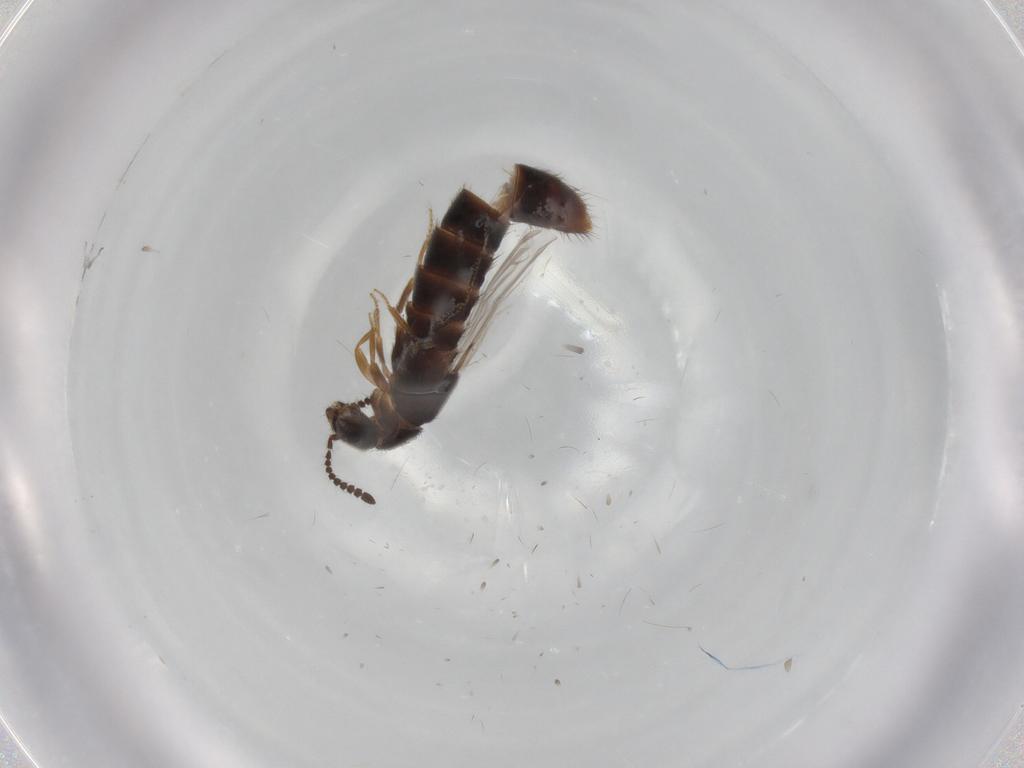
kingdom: Animalia
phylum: Arthropoda
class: Insecta
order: Coleoptera
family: Staphylinidae
